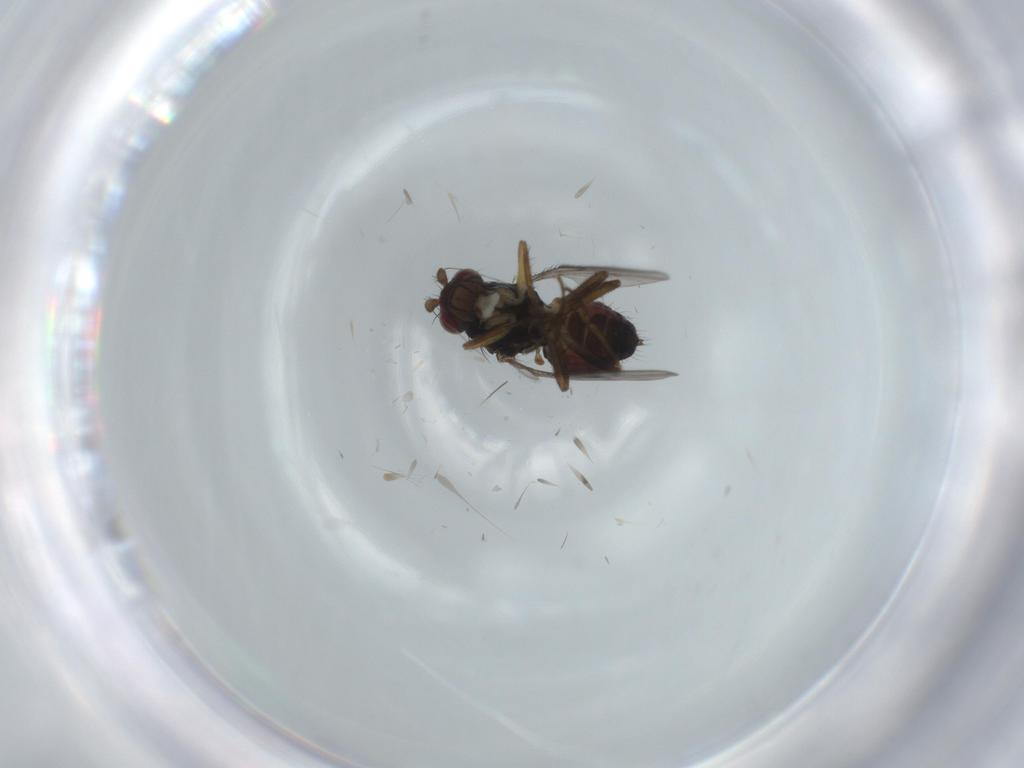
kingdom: Animalia
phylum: Arthropoda
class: Insecta
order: Diptera
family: Sphaeroceridae
